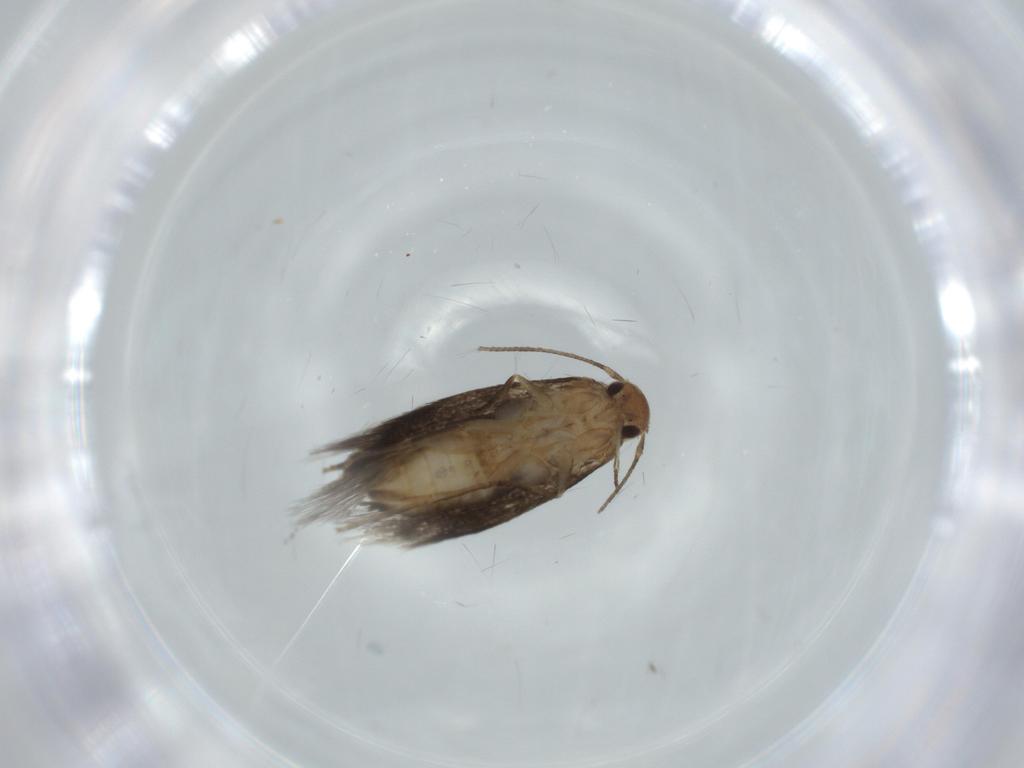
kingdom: Animalia
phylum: Arthropoda
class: Insecta
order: Lepidoptera
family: Gelechiidae
